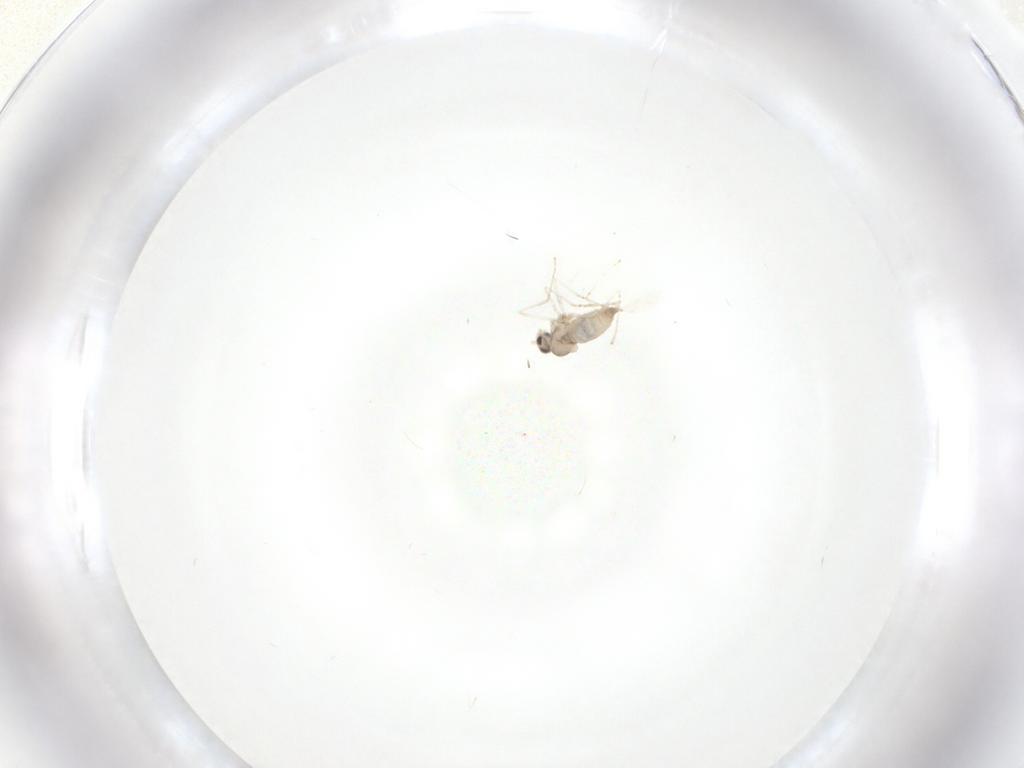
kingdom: Animalia
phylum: Arthropoda
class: Insecta
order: Diptera
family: Cecidomyiidae
